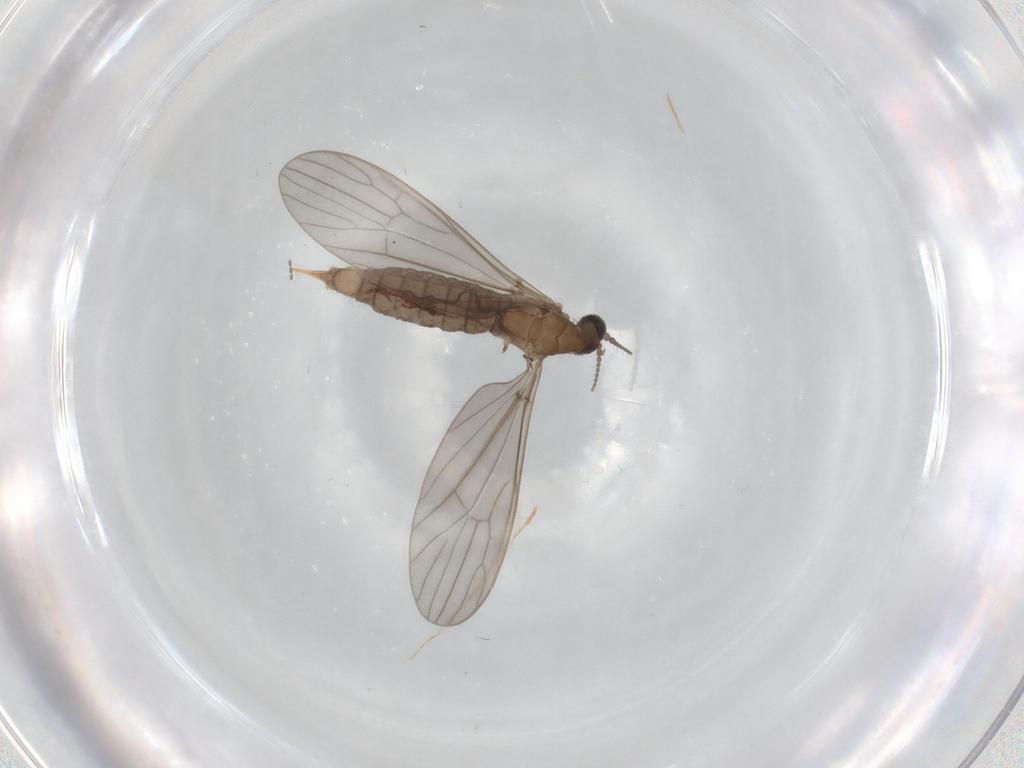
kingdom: Animalia
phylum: Arthropoda
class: Insecta
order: Diptera
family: Limoniidae
